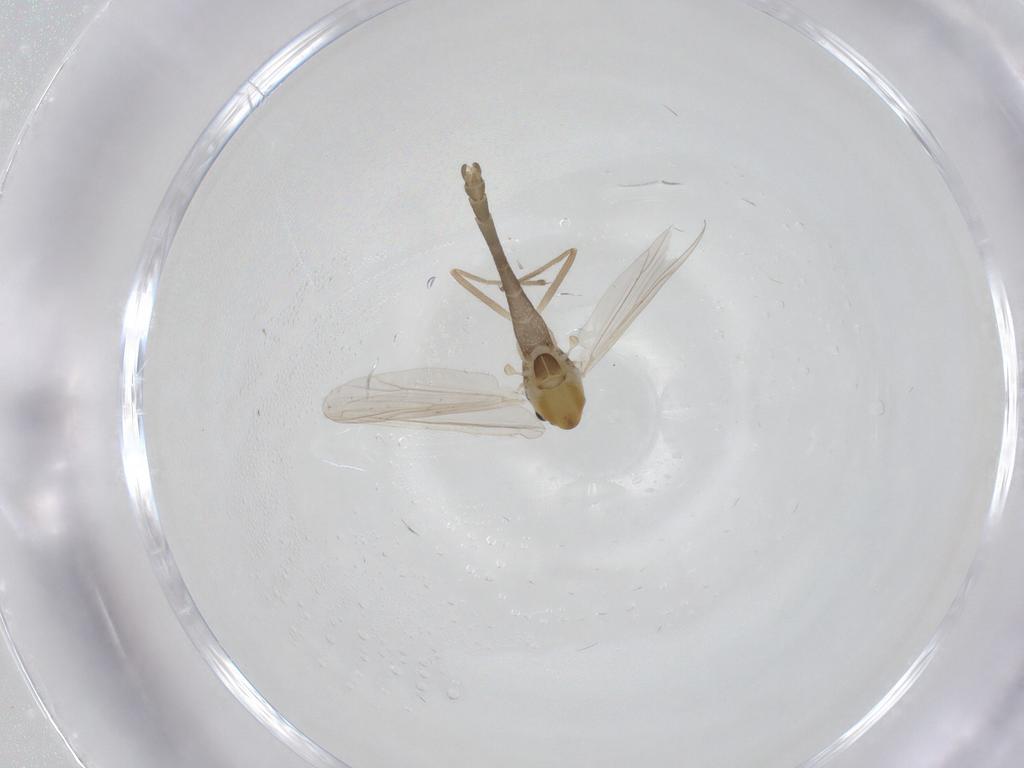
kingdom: Animalia
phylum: Arthropoda
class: Insecta
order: Diptera
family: Chironomidae
